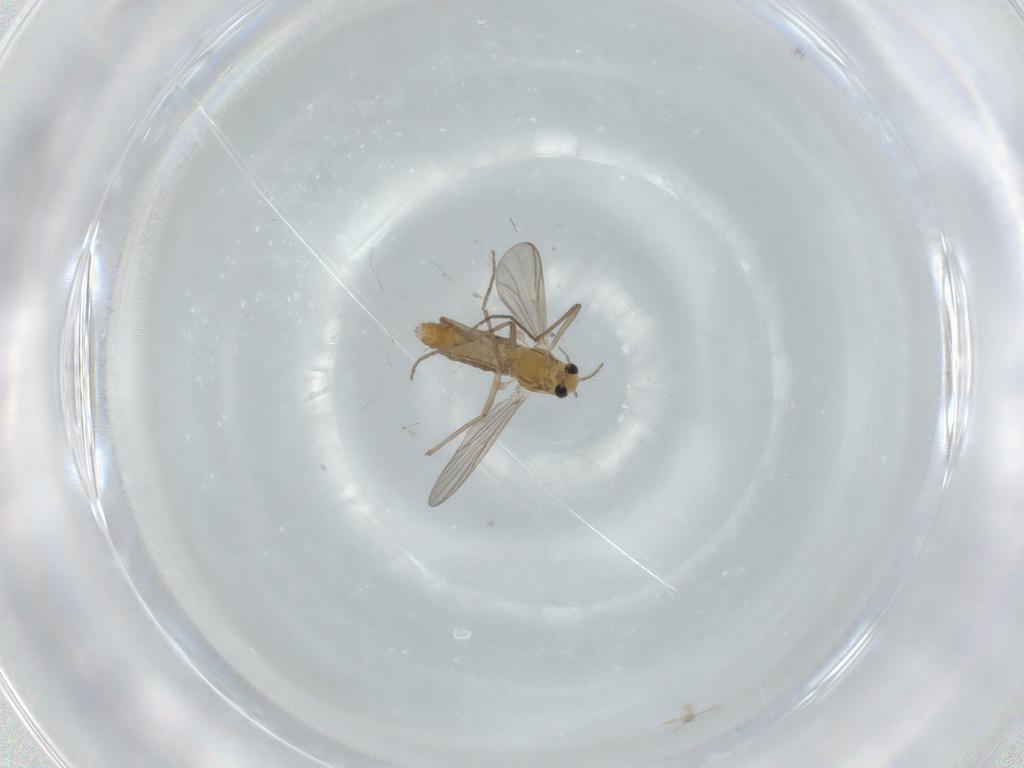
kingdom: Animalia
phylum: Arthropoda
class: Insecta
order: Diptera
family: Chironomidae
